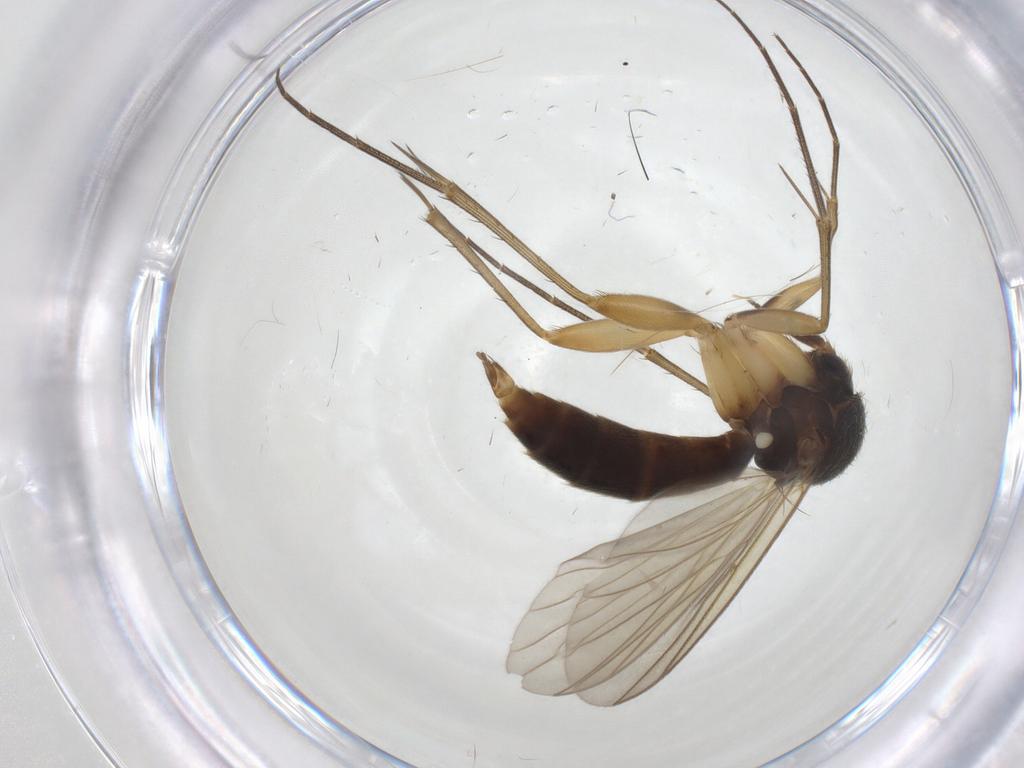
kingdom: Animalia
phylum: Arthropoda
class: Insecta
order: Diptera
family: Mycetophilidae
